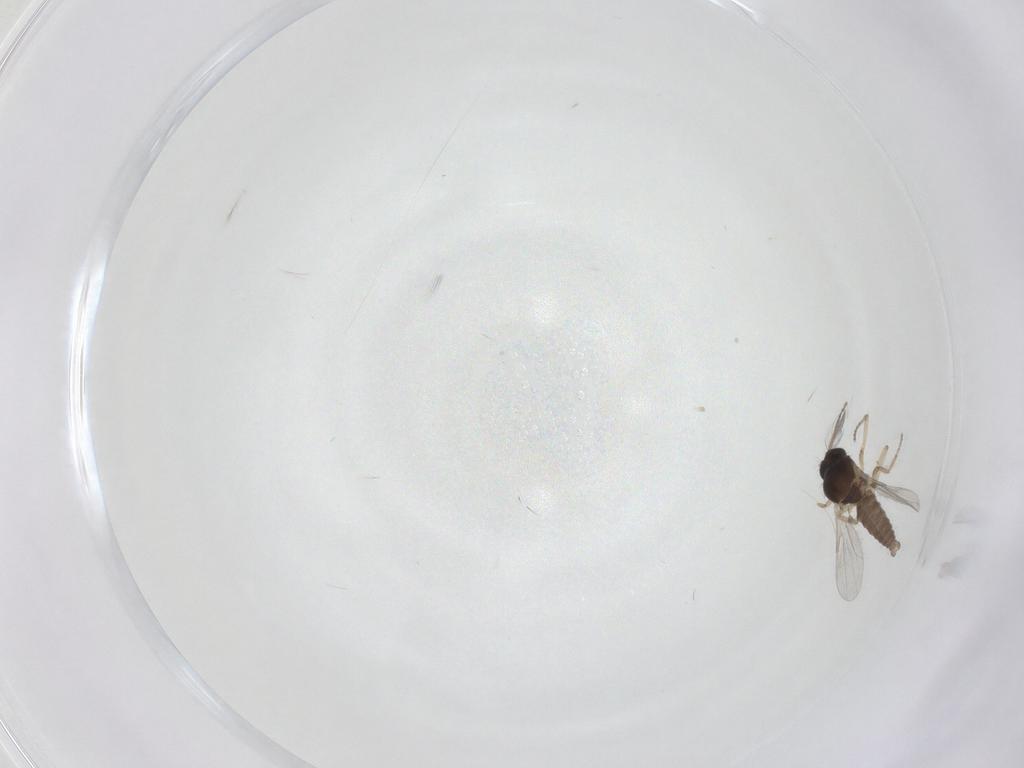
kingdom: Animalia
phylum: Arthropoda
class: Insecta
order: Diptera
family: Ceratopogonidae
